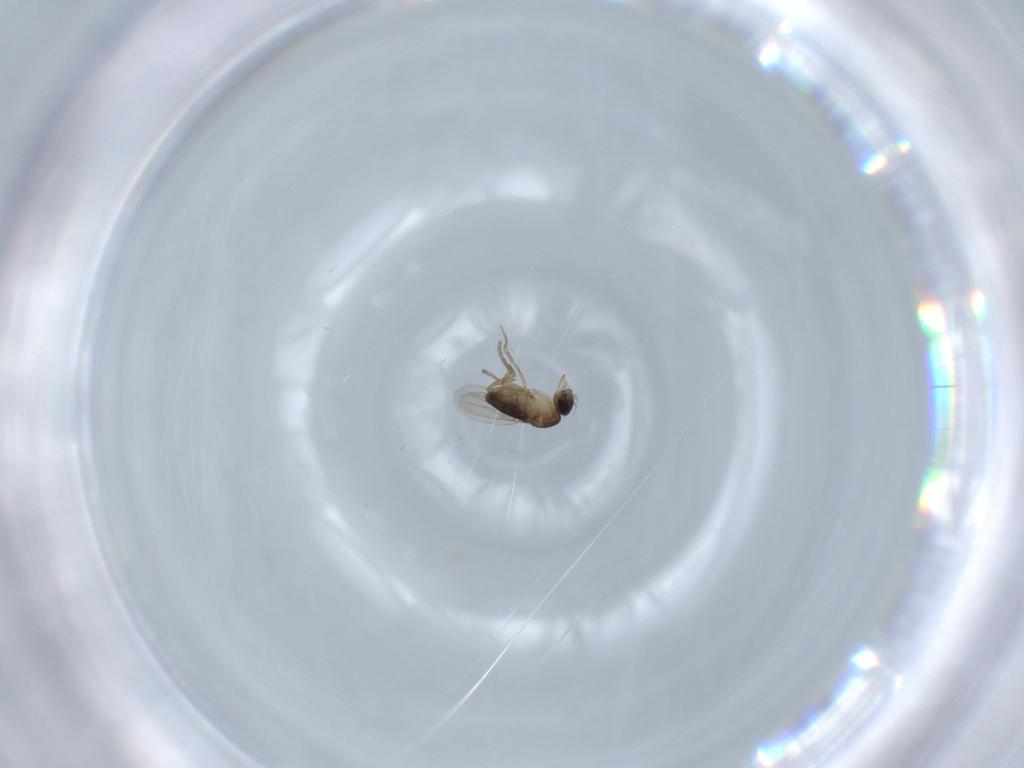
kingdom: Animalia
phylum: Arthropoda
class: Insecta
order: Diptera
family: Phoridae
